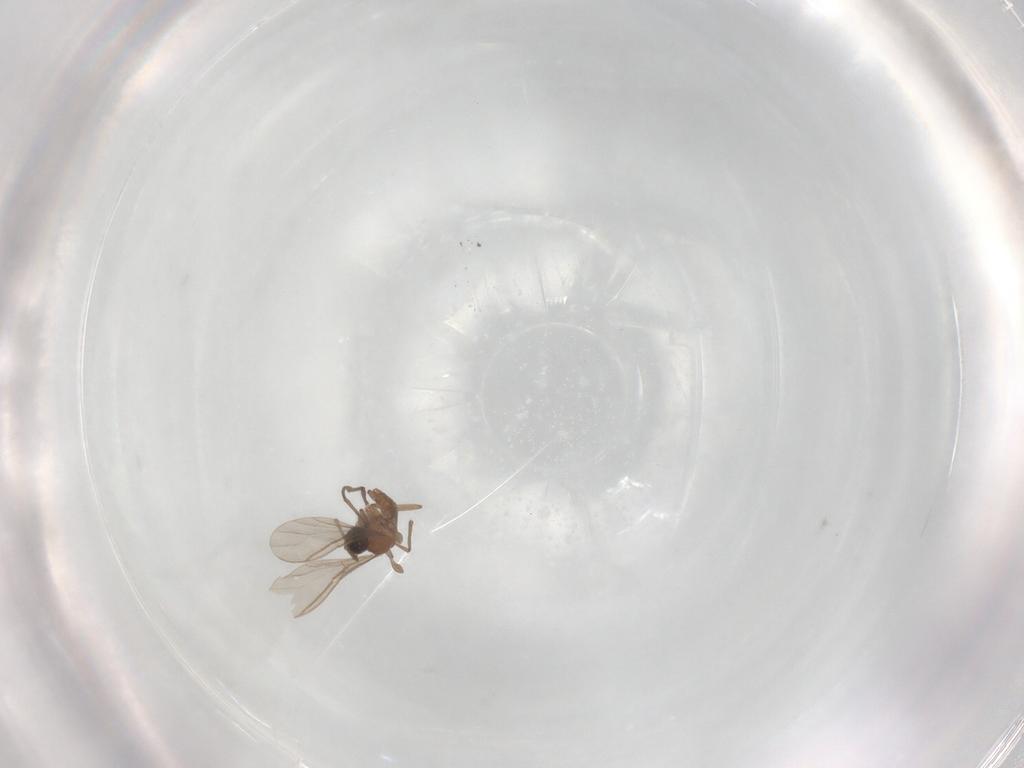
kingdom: Animalia
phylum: Arthropoda
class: Insecta
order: Diptera
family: Sciaridae
